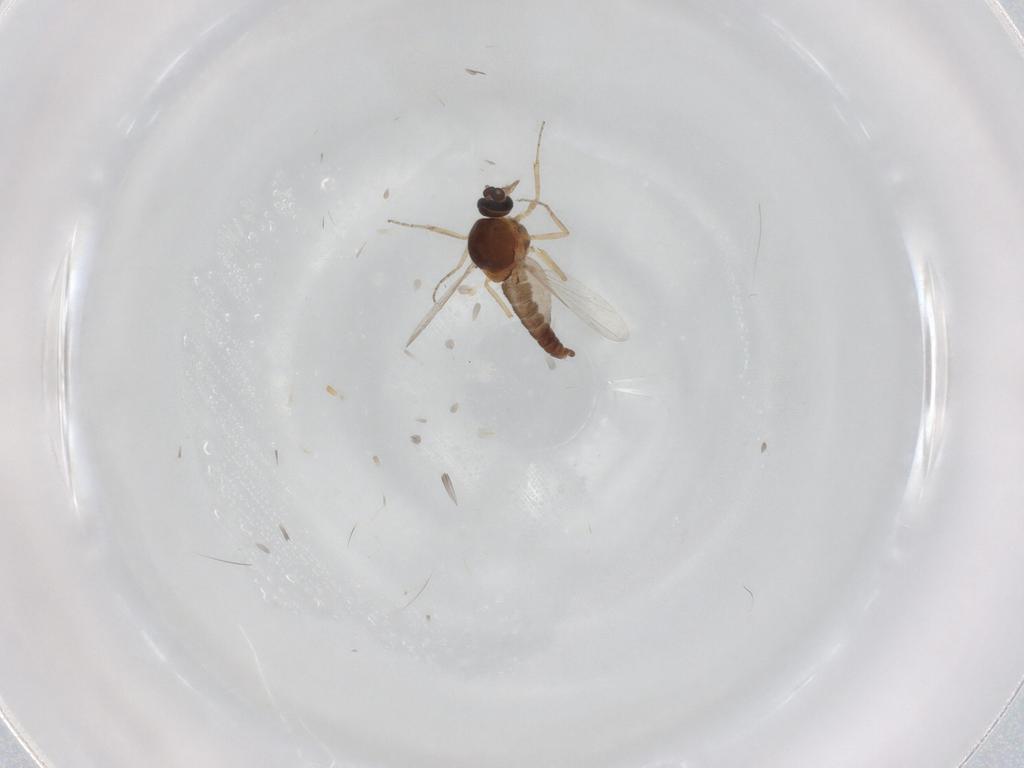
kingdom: Animalia
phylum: Arthropoda
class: Insecta
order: Diptera
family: Ceratopogonidae
